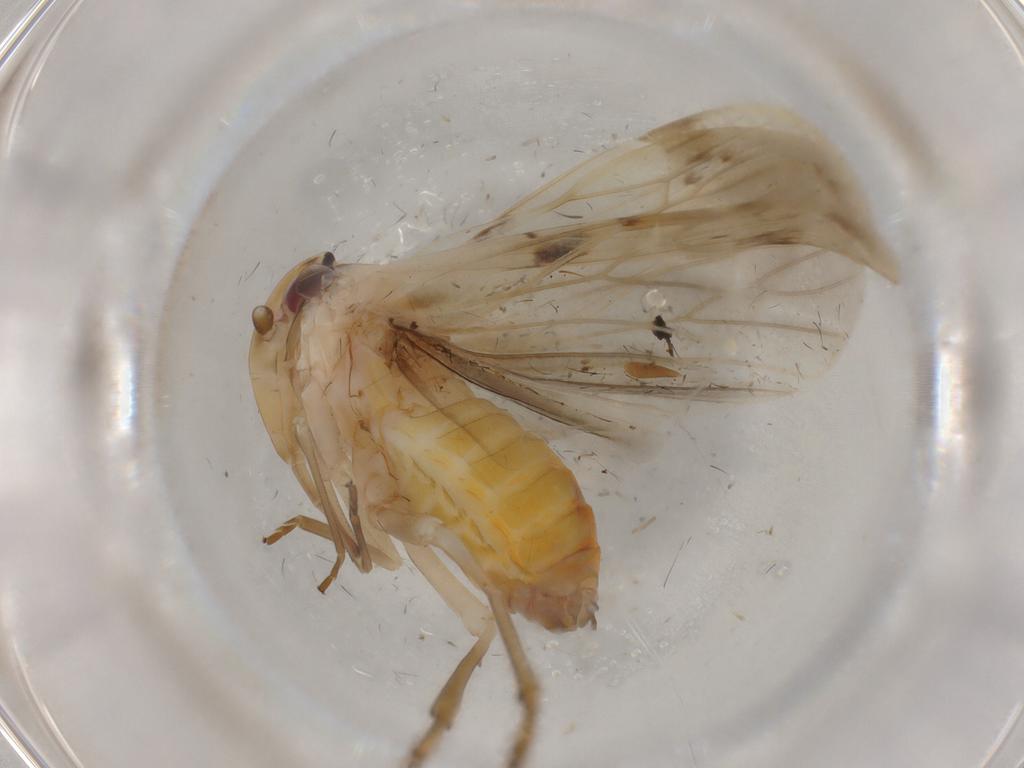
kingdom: Animalia
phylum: Arthropoda
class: Insecta
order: Hemiptera
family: Achilidae
